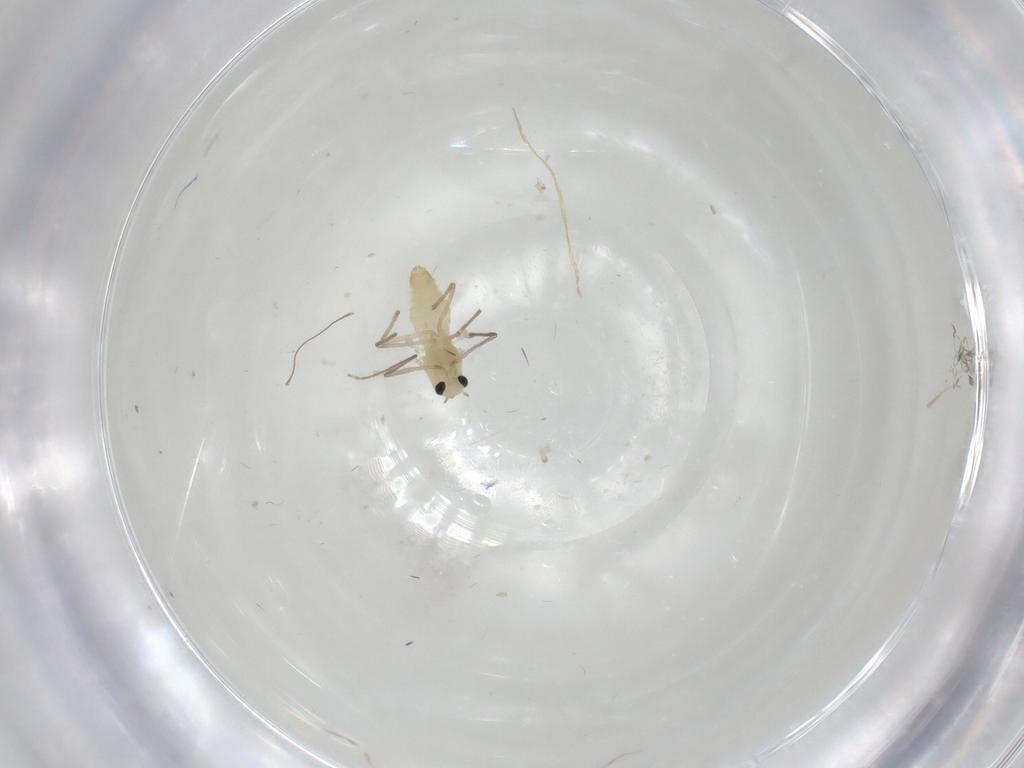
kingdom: Animalia
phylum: Arthropoda
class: Insecta
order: Diptera
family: Chironomidae
